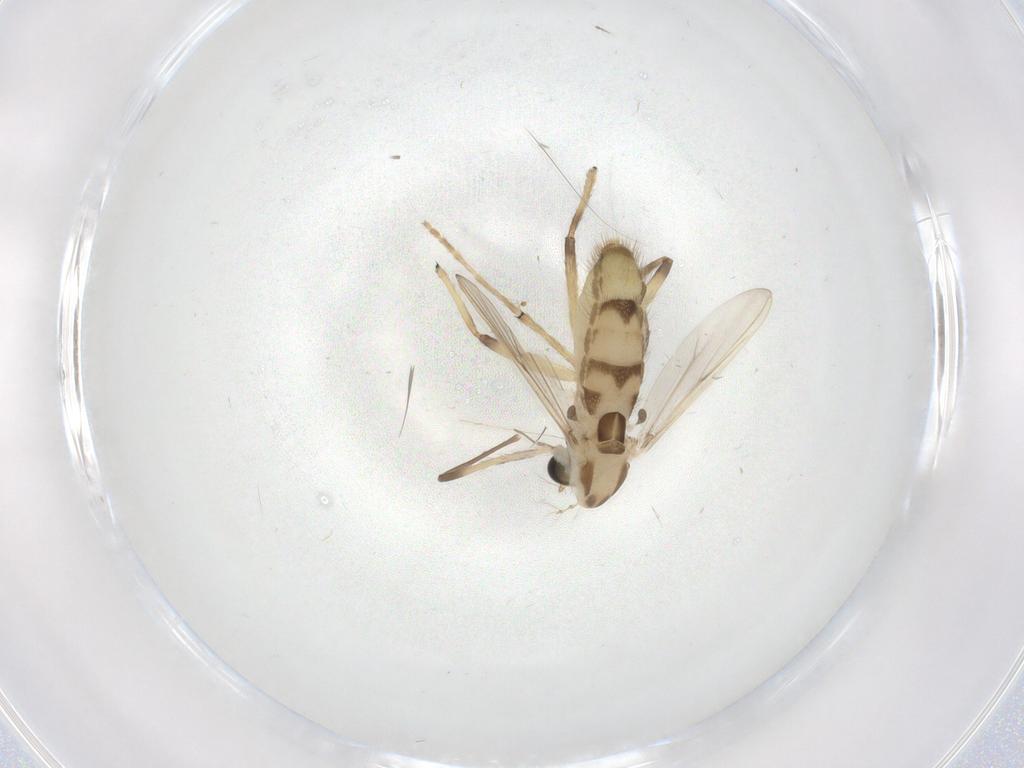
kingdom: Animalia
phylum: Arthropoda
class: Insecta
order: Diptera
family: Chironomidae
